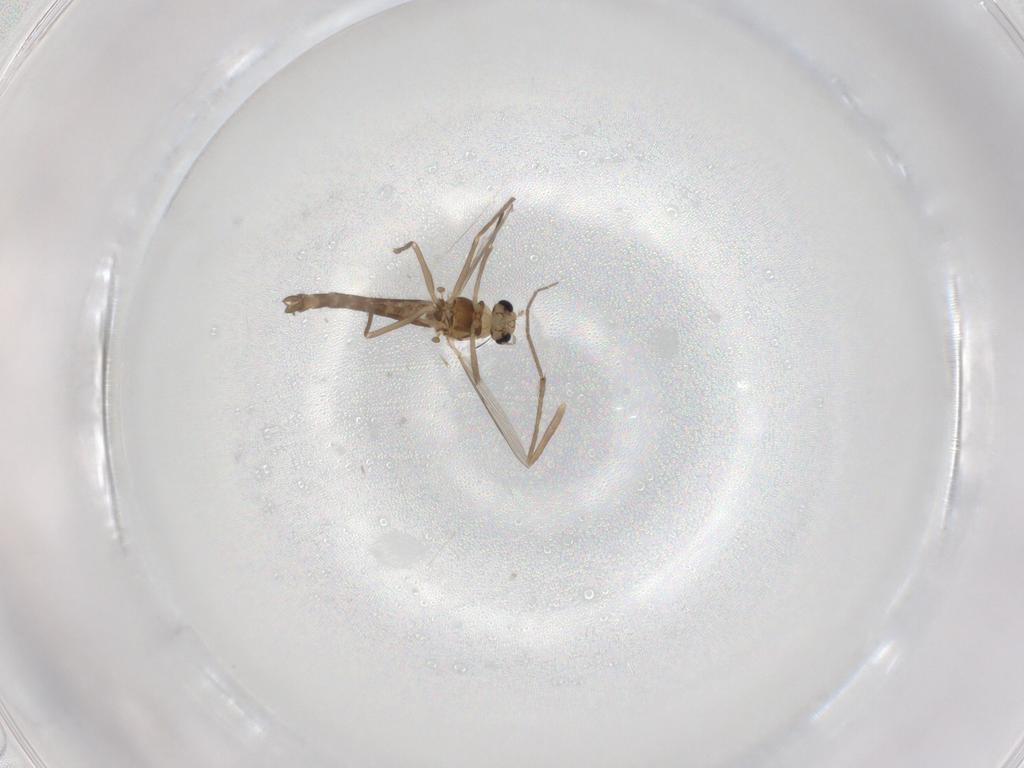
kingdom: Animalia
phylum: Arthropoda
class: Insecta
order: Diptera
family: Chironomidae
